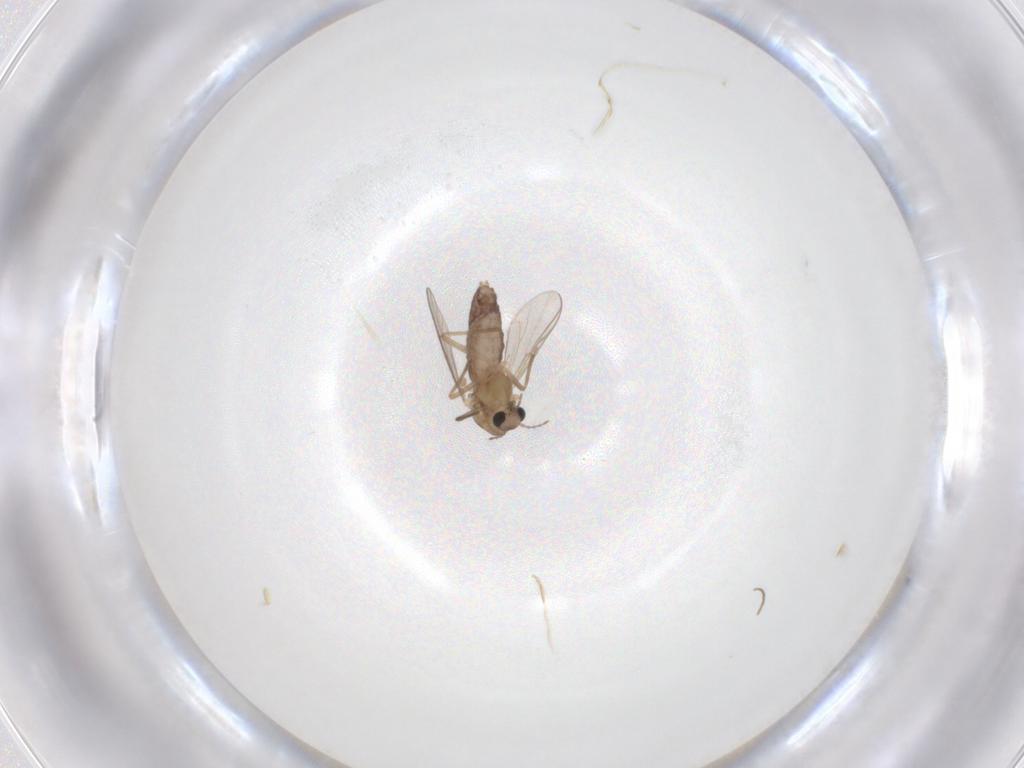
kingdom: Animalia
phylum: Arthropoda
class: Insecta
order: Diptera
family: Chironomidae
